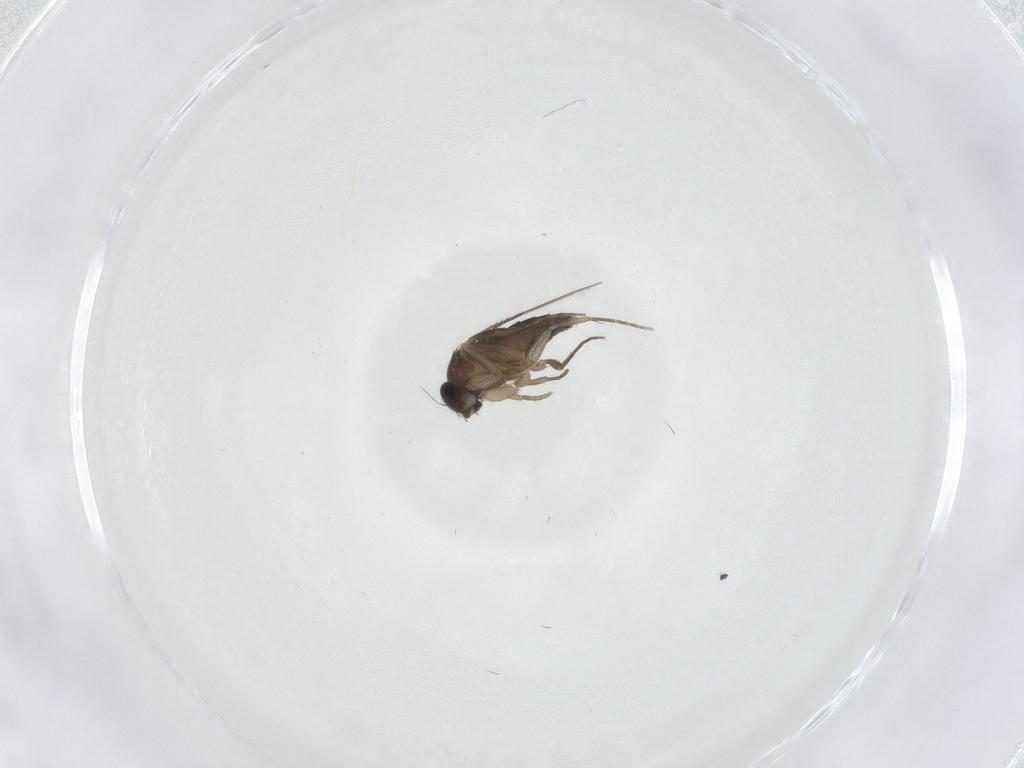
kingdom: Animalia
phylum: Arthropoda
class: Insecta
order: Diptera
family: Phoridae
